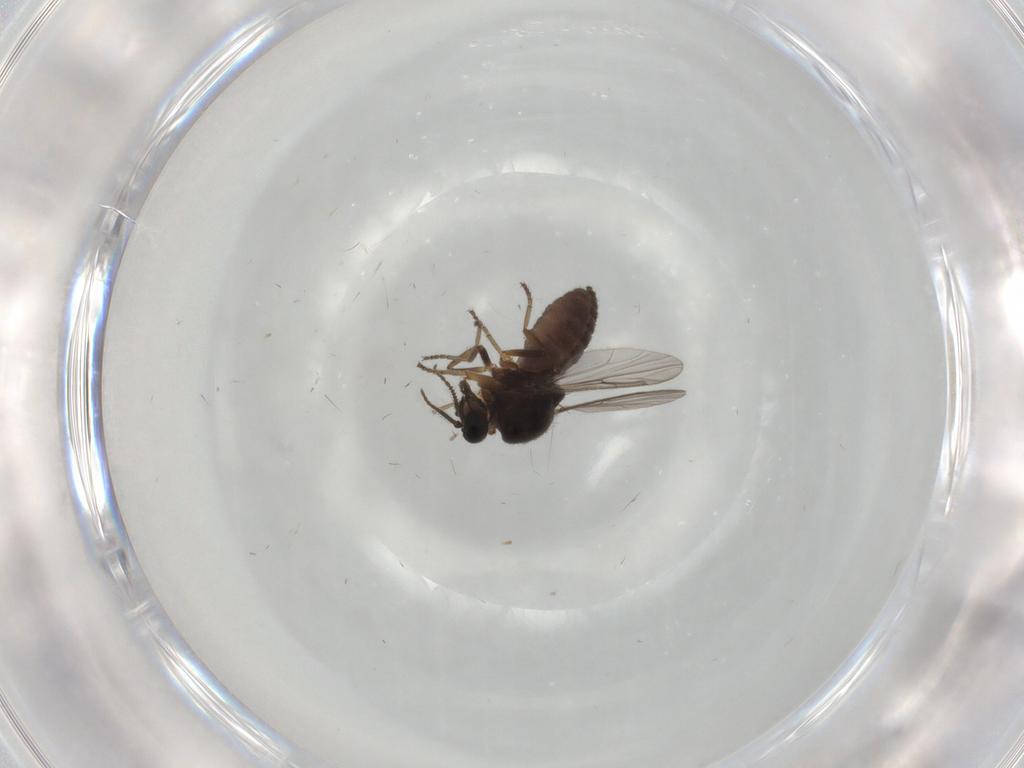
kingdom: Animalia
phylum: Arthropoda
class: Insecta
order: Diptera
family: Ceratopogonidae
